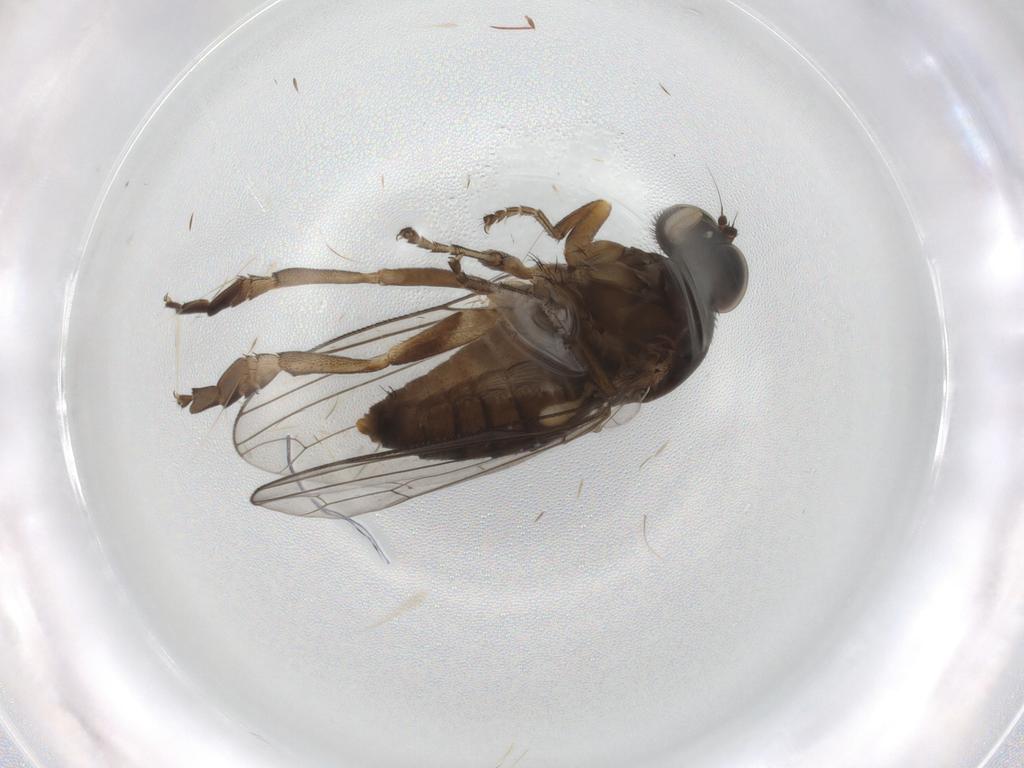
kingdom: Animalia
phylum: Arthropoda
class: Insecta
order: Diptera
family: Platypezidae
